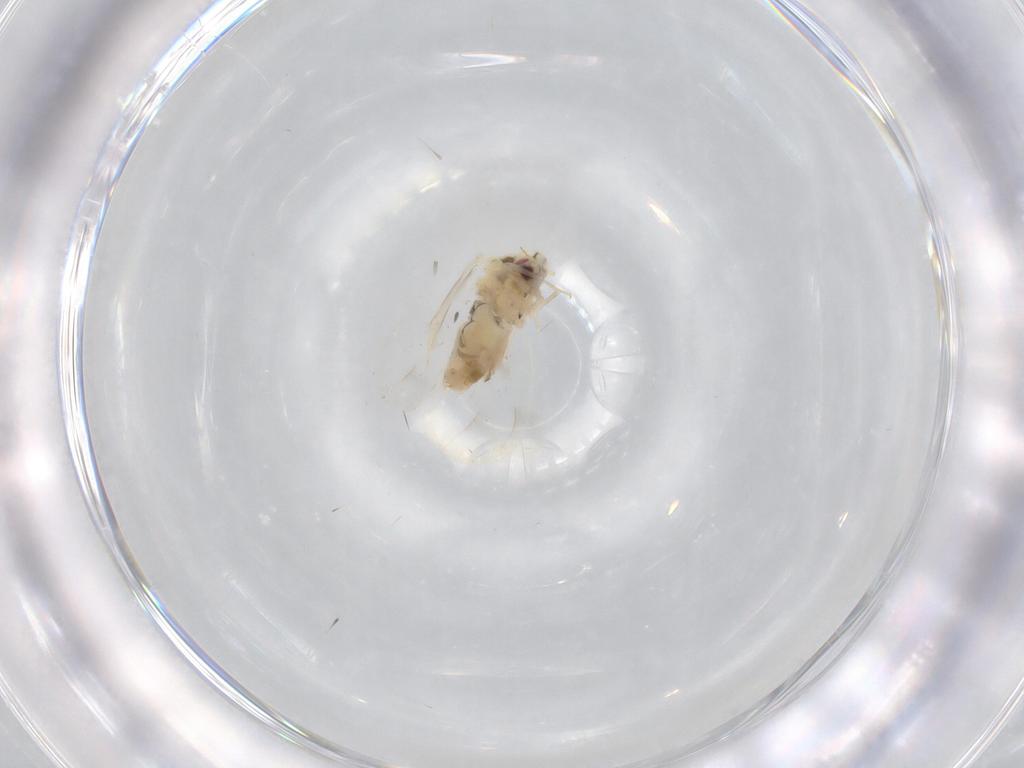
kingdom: Animalia
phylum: Arthropoda
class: Insecta
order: Hemiptera
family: Aleyrodidae
